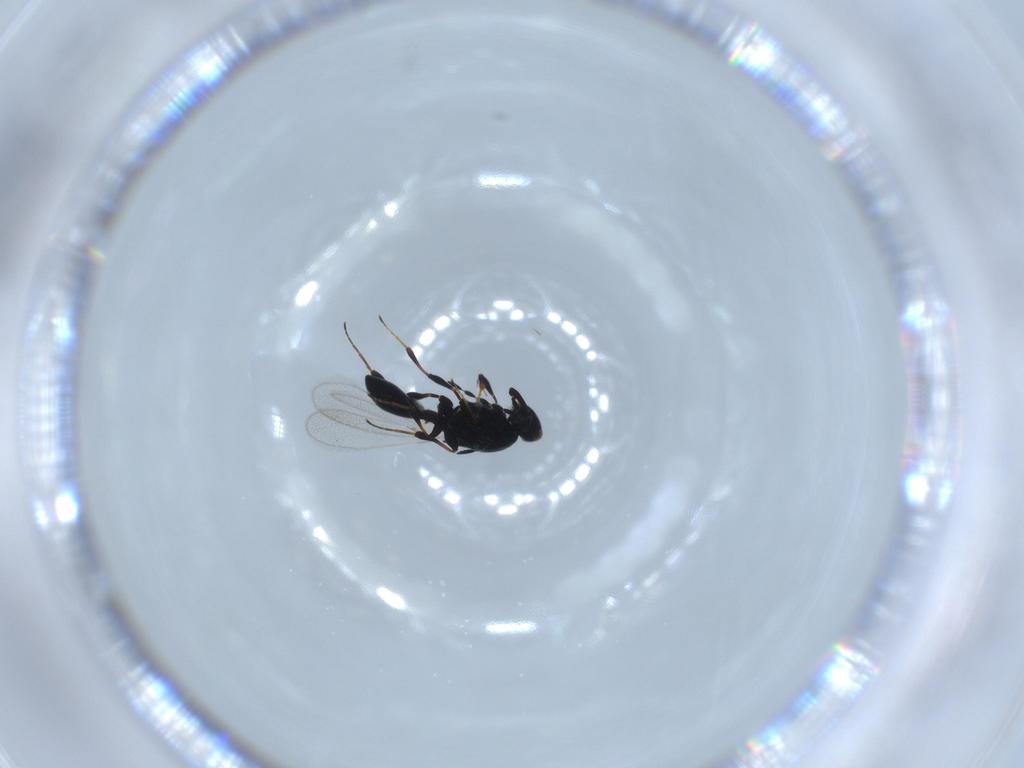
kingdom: Animalia
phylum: Arthropoda
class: Insecta
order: Hymenoptera
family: Platygastridae
